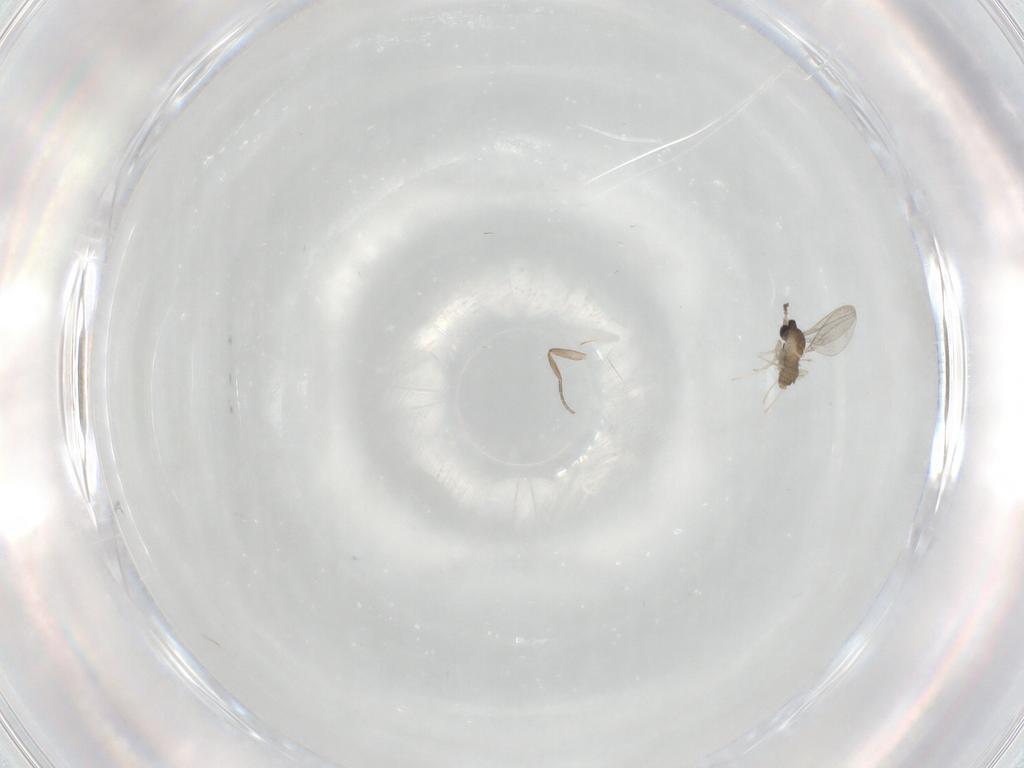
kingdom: Animalia
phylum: Arthropoda
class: Insecta
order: Diptera
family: Cecidomyiidae
